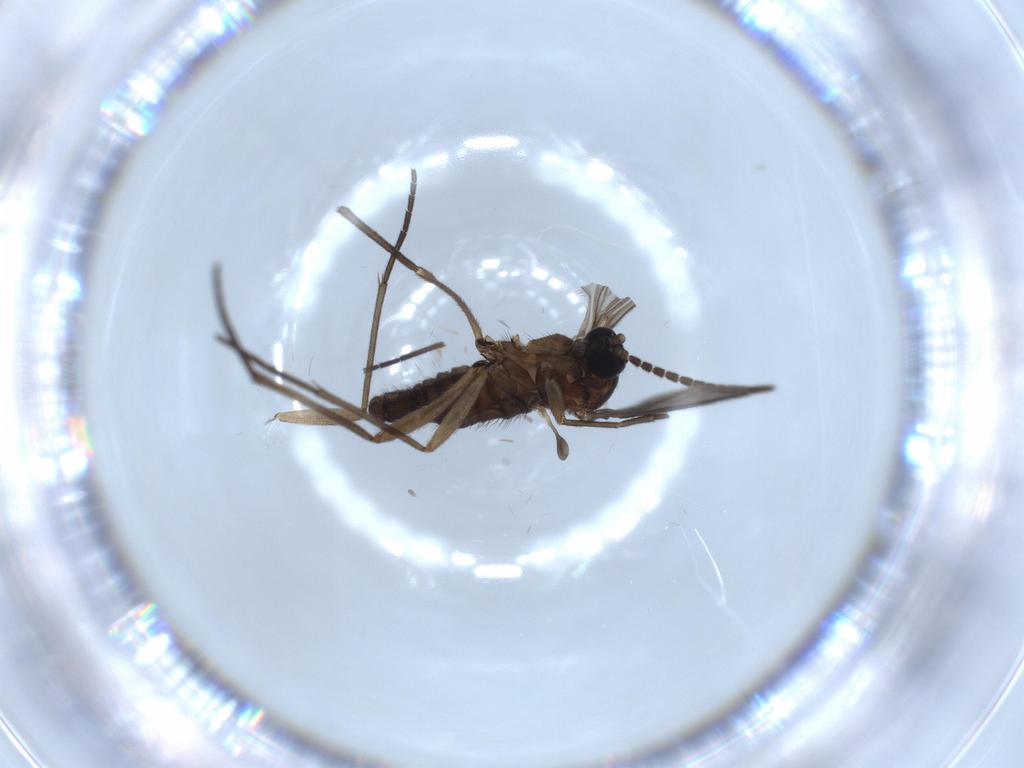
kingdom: Animalia
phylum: Arthropoda
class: Insecta
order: Diptera
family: Sciaridae
